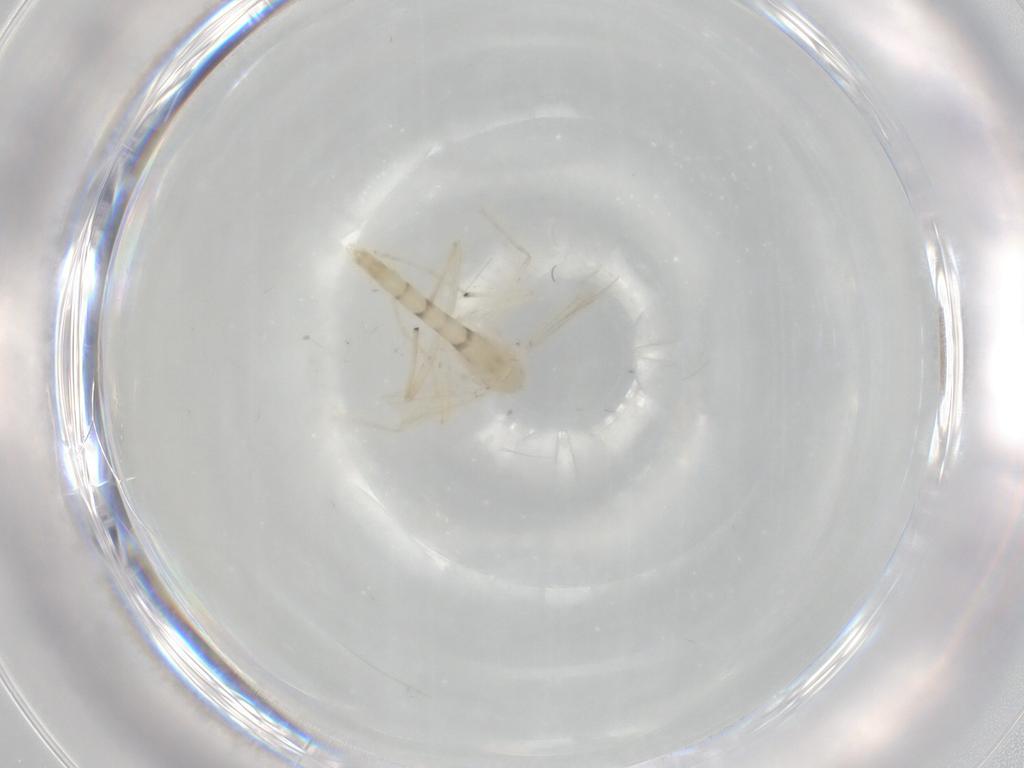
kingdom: Animalia
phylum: Arthropoda
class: Insecta
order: Diptera
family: Chironomidae
